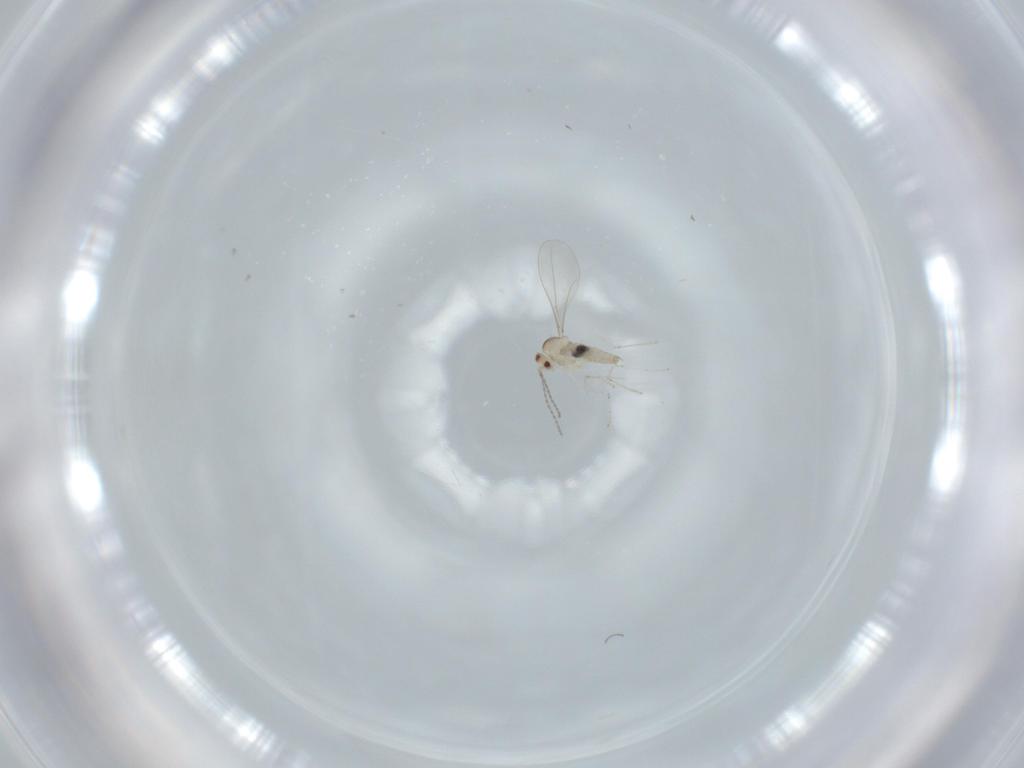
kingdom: Animalia
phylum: Arthropoda
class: Insecta
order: Diptera
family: Cecidomyiidae
